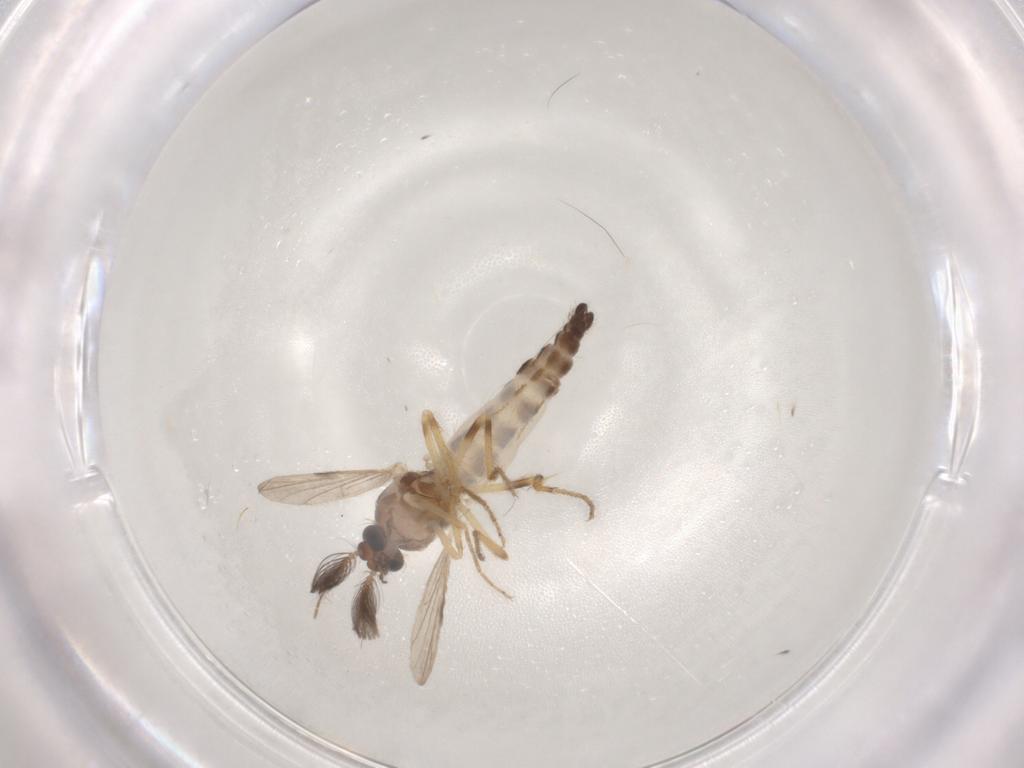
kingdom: Animalia
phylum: Arthropoda
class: Insecta
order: Diptera
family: Ceratopogonidae
